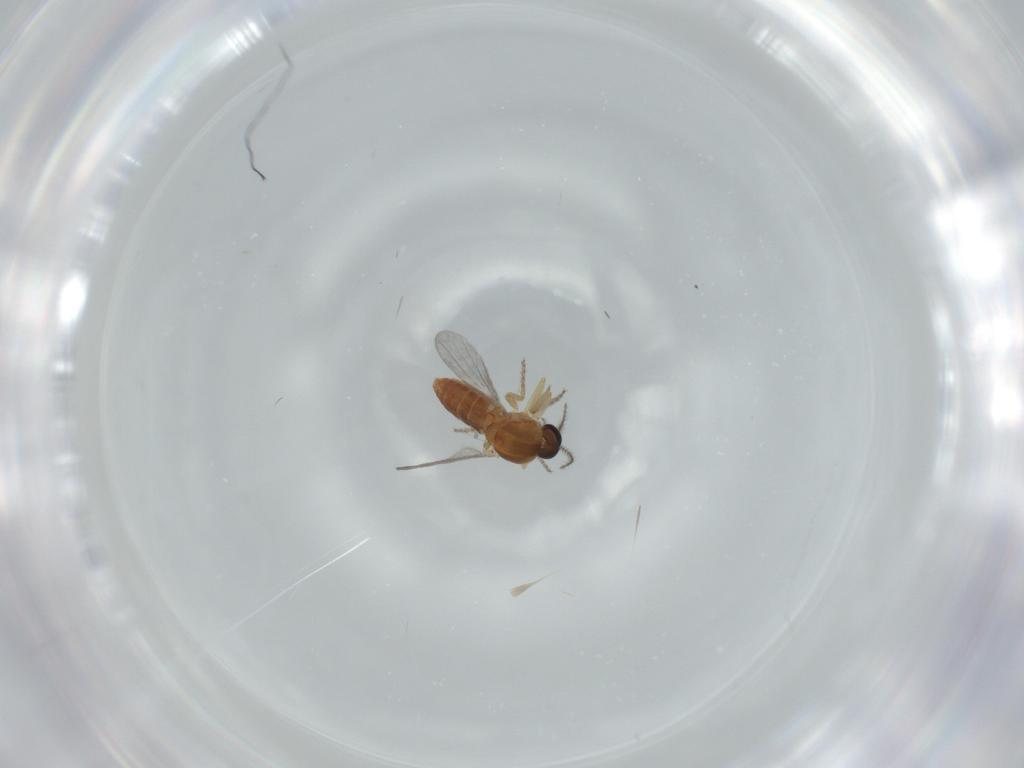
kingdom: Animalia
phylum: Arthropoda
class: Insecta
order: Diptera
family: Ceratopogonidae
